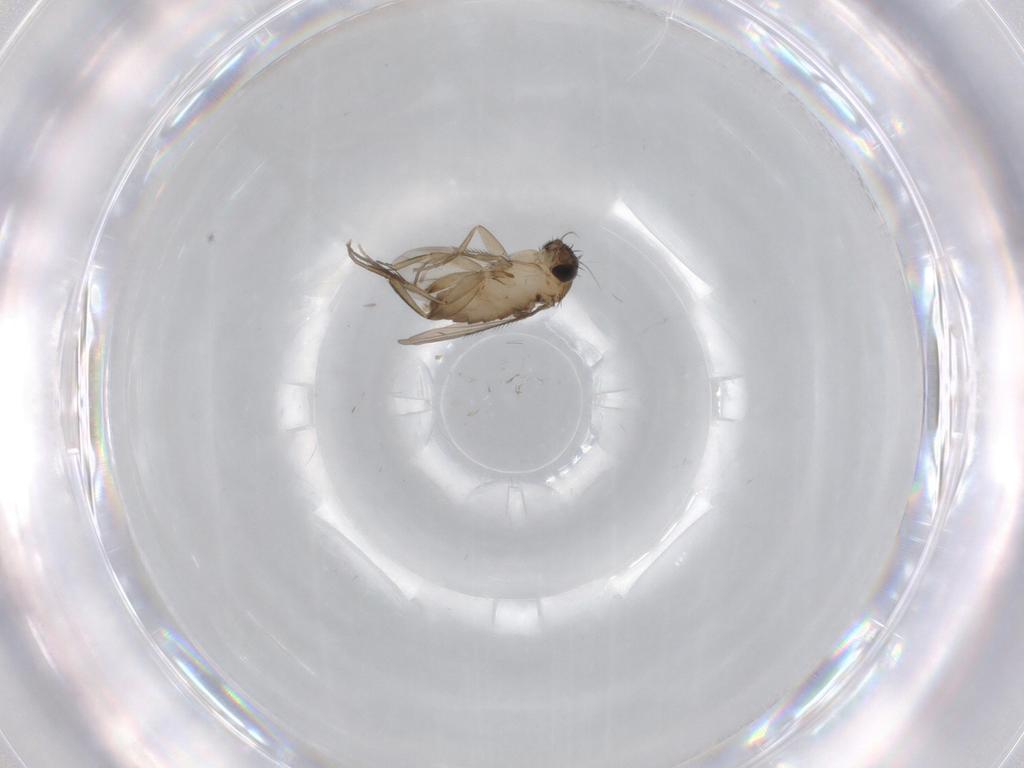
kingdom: Animalia
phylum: Arthropoda
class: Insecta
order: Diptera
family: Phoridae
